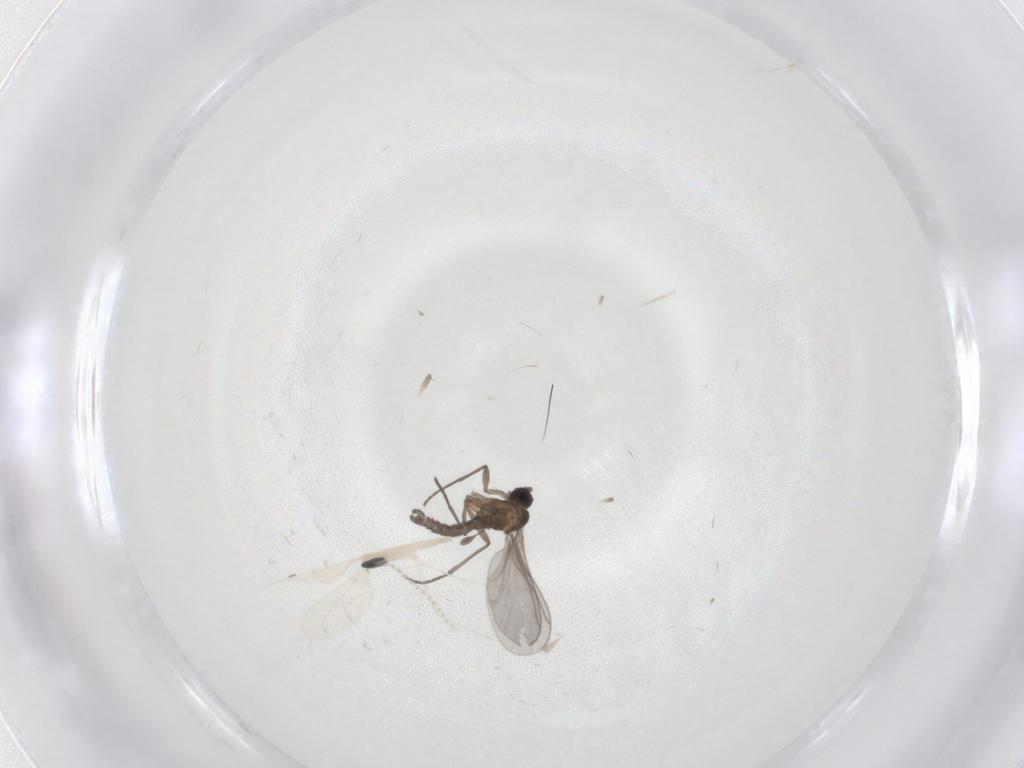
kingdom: Animalia
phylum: Arthropoda
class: Insecta
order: Diptera
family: Cecidomyiidae
